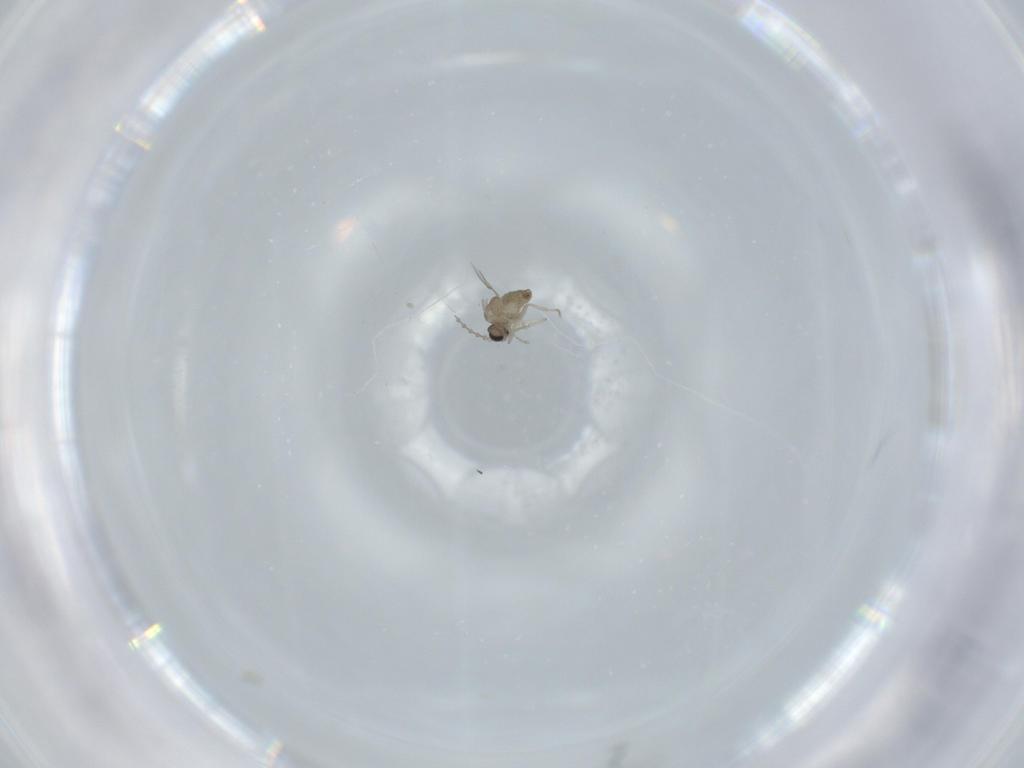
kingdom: Animalia
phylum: Arthropoda
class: Insecta
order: Diptera
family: Cecidomyiidae
